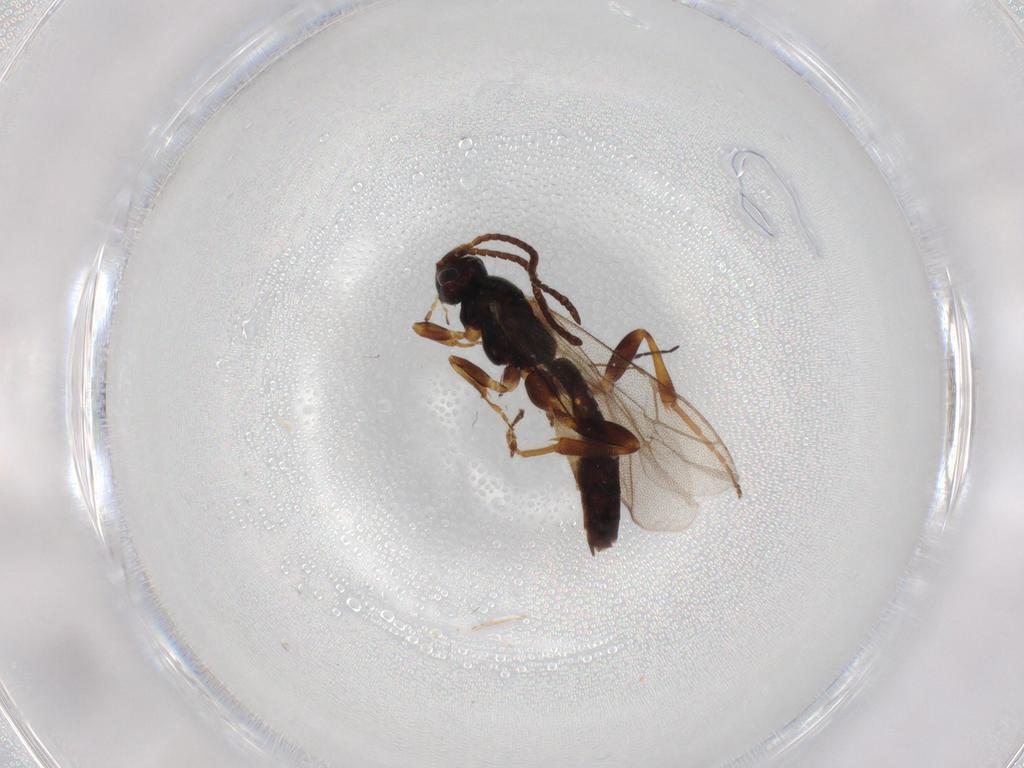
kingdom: Animalia
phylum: Arthropoda
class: Insecta
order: Hymenoptera
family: Ichneumonidae
